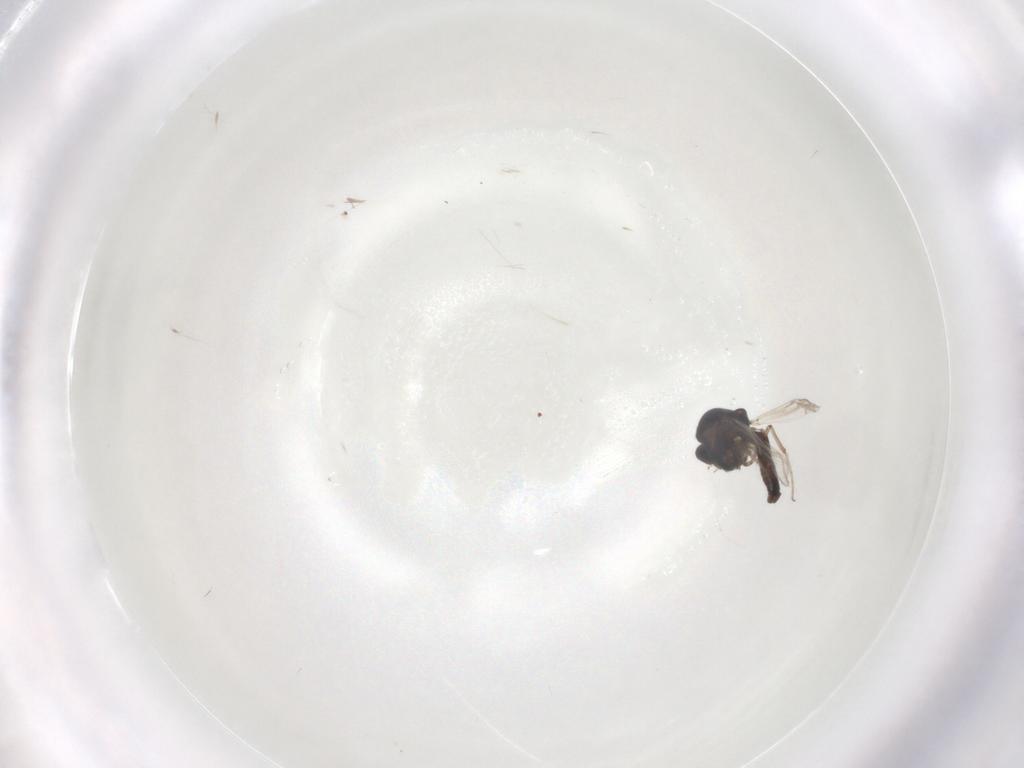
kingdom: Animalia
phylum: Arthropoda
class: Insecta
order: Diptera
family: Ceratopogonidae
